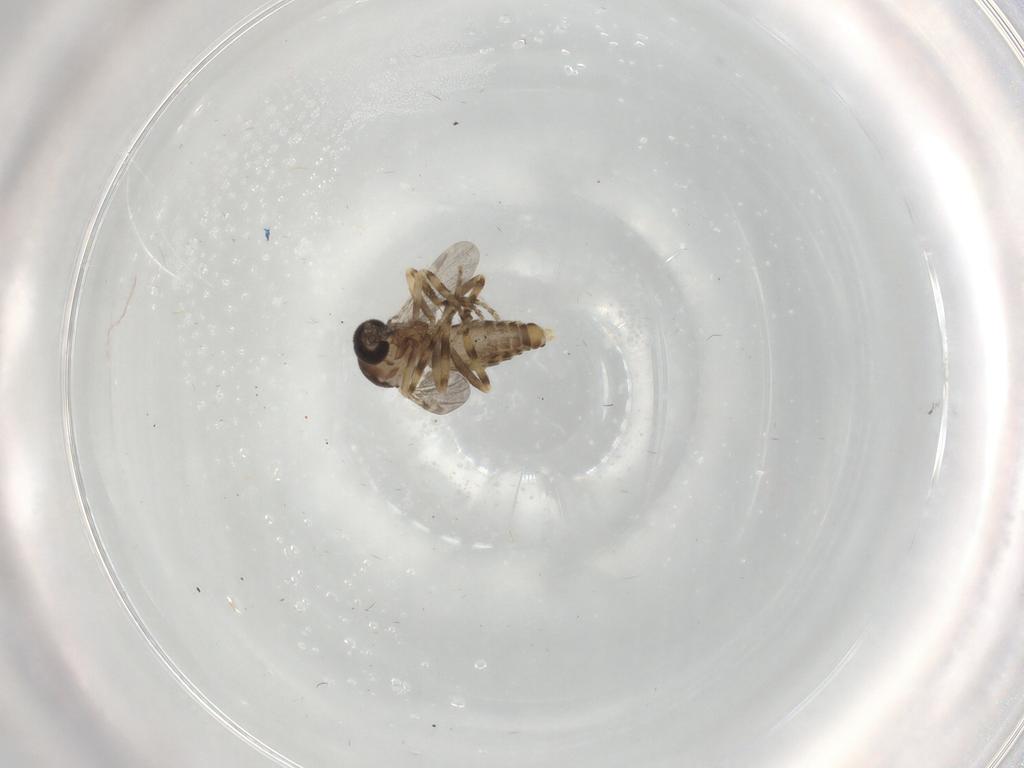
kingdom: Animalia
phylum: Arthropoda
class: Insecta
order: Diptera
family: Ceratopogonidae
